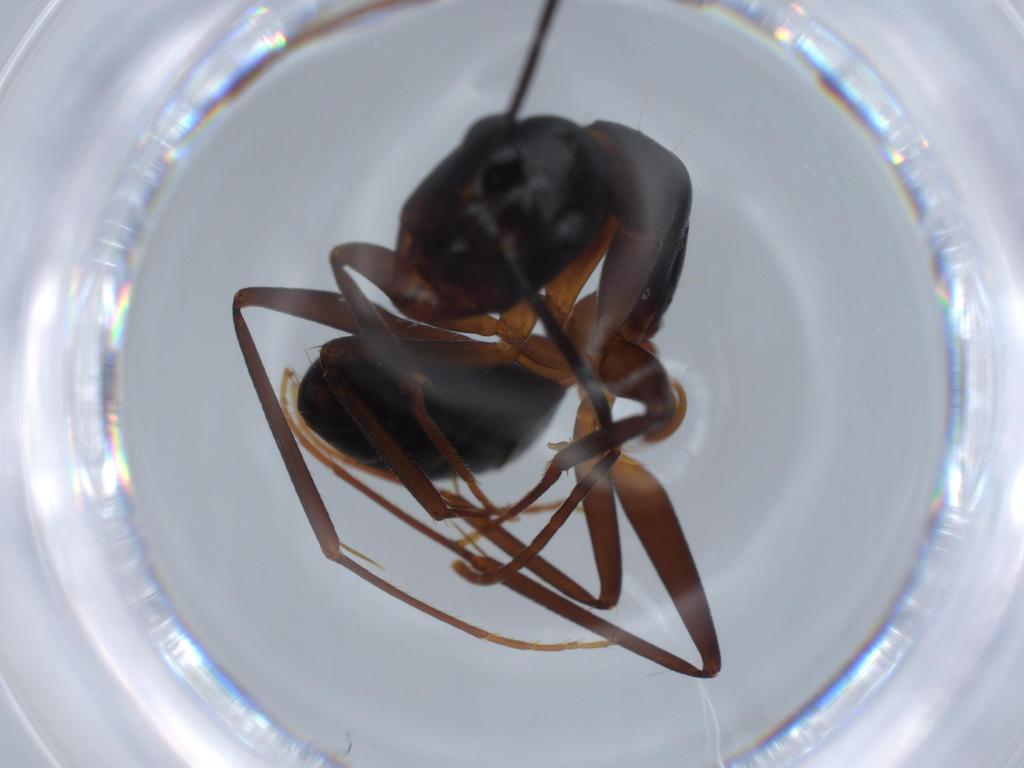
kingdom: Animalia
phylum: Arthropoda
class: Insecta
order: Hymenoptera
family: Formicidae
